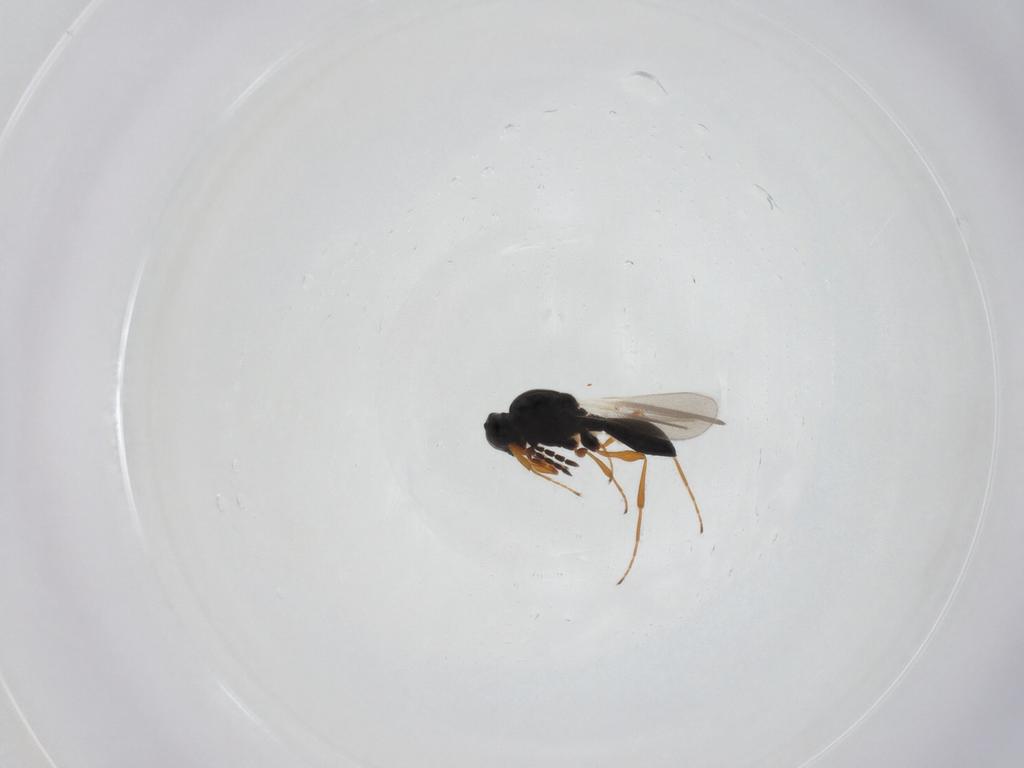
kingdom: Animalia
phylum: Arthropoda
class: Insecta
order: Hymenoptera
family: Platygastridae
